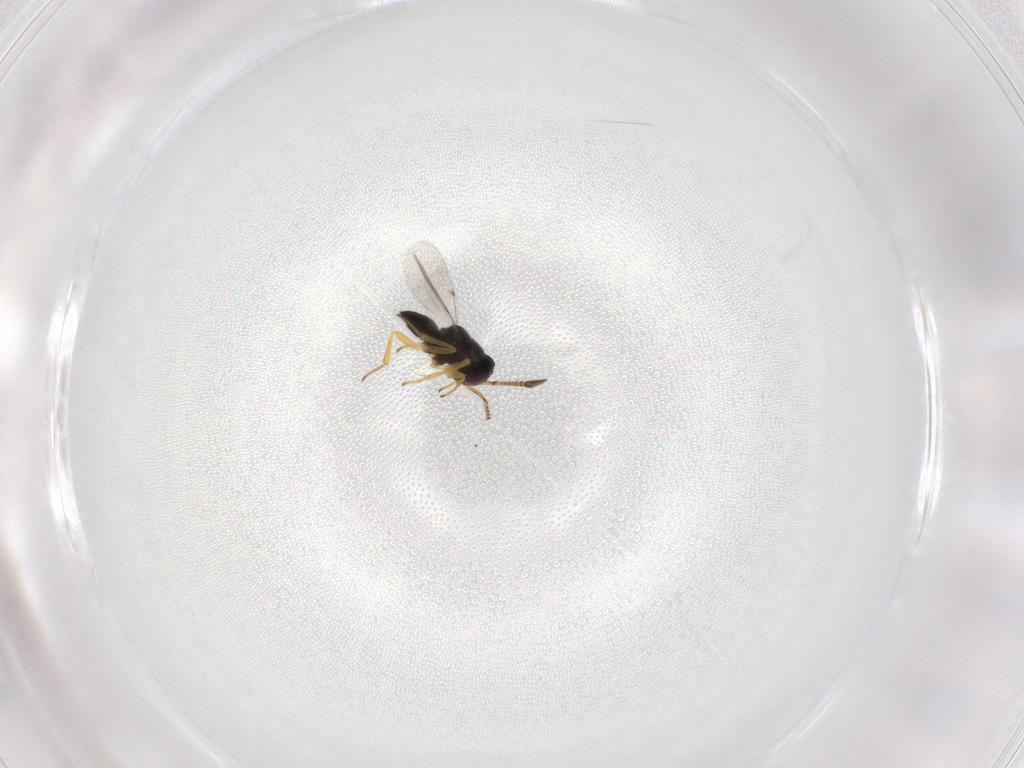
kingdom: Animalia
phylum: Arthropoda
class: Insecta
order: Hymenoptera
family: Encyrtidae
